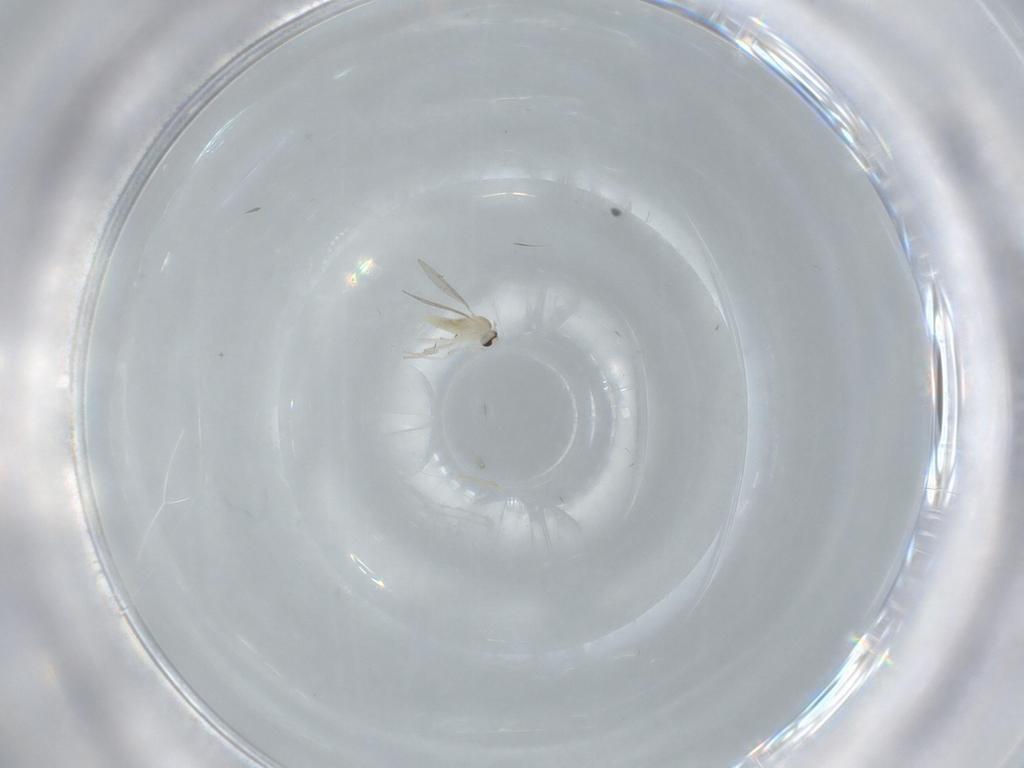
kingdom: Animalia
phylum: Arthropoda
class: Insecta
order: Diptera
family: Cecidomyiidae
